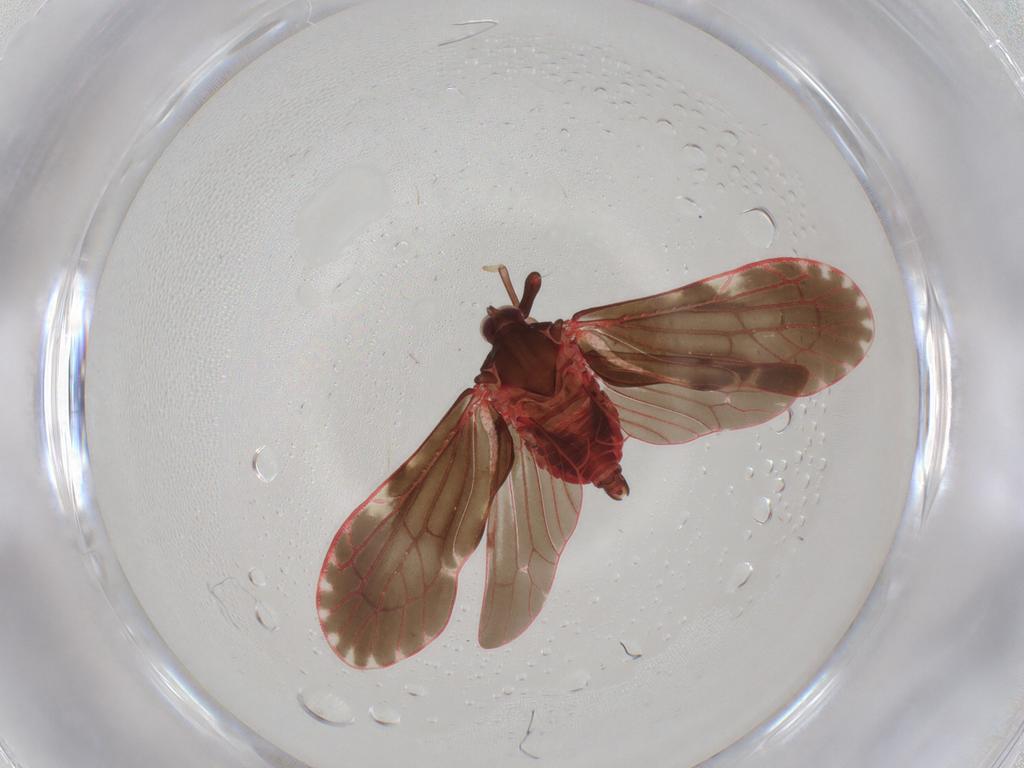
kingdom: Animalia
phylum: Arthropoda
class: Insecta
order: Hemiptera
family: Derbidae
